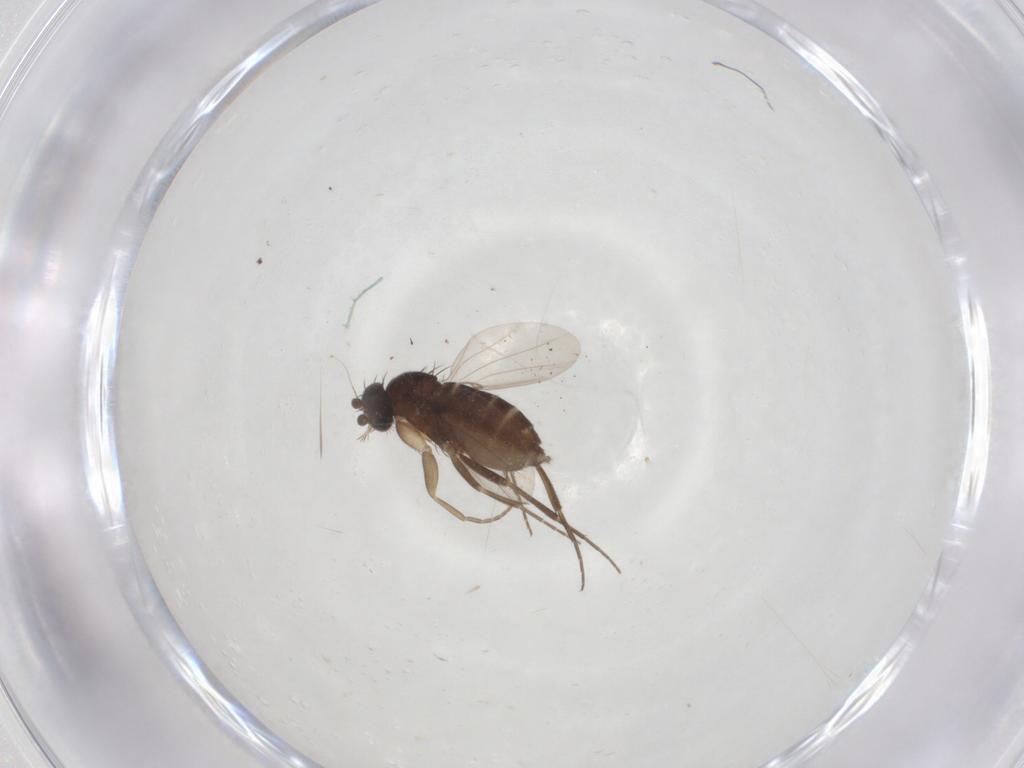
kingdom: Animalia
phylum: Arthropoda
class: Insecta
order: Diptera
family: Phoridae
